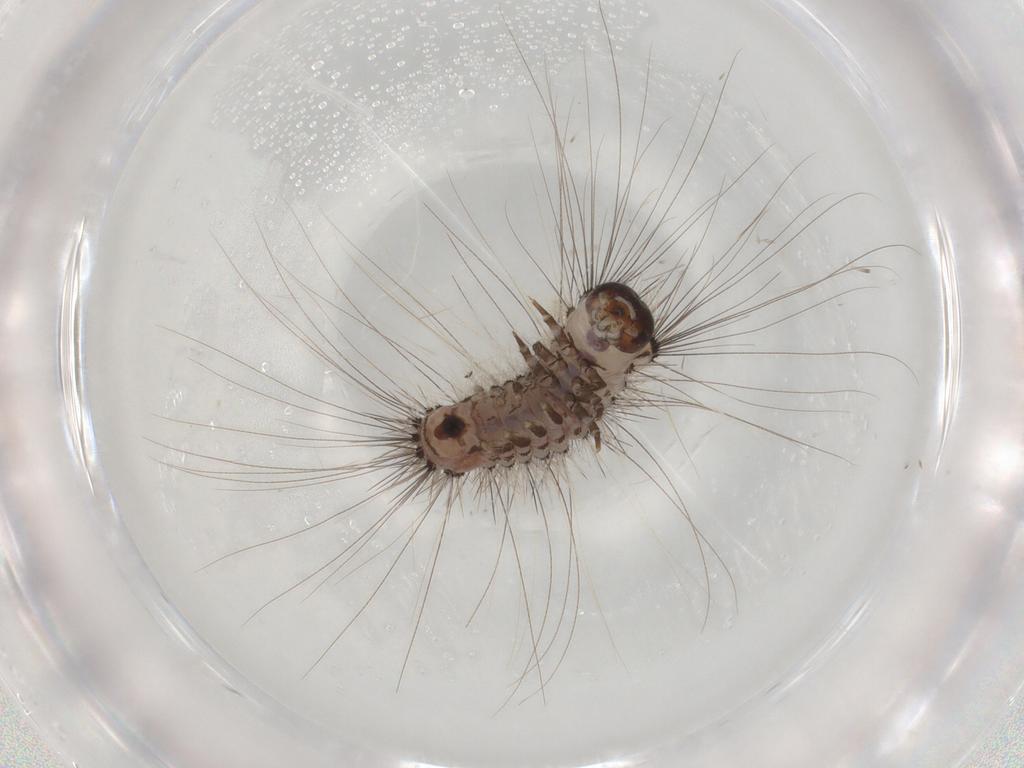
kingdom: Animalia
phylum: Arthropoda
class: Insecta
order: Lepidoptera
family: Scythrididae
